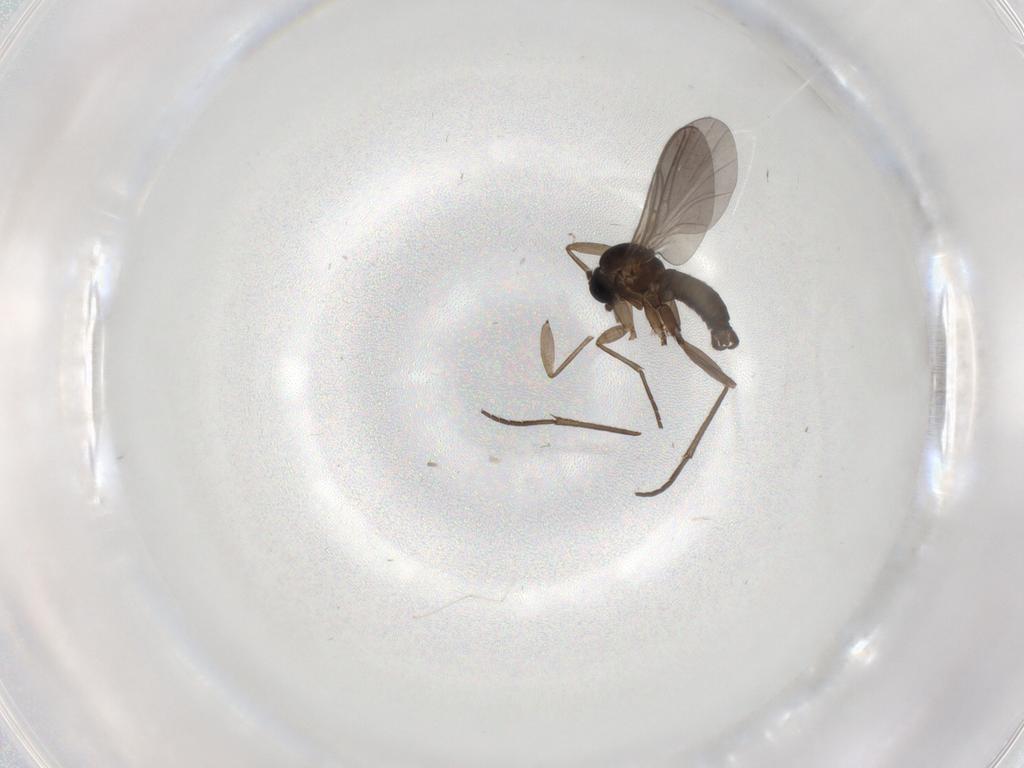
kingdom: Animalia
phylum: Arthropoda
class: Insecta
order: Diptera
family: Sciaridae
